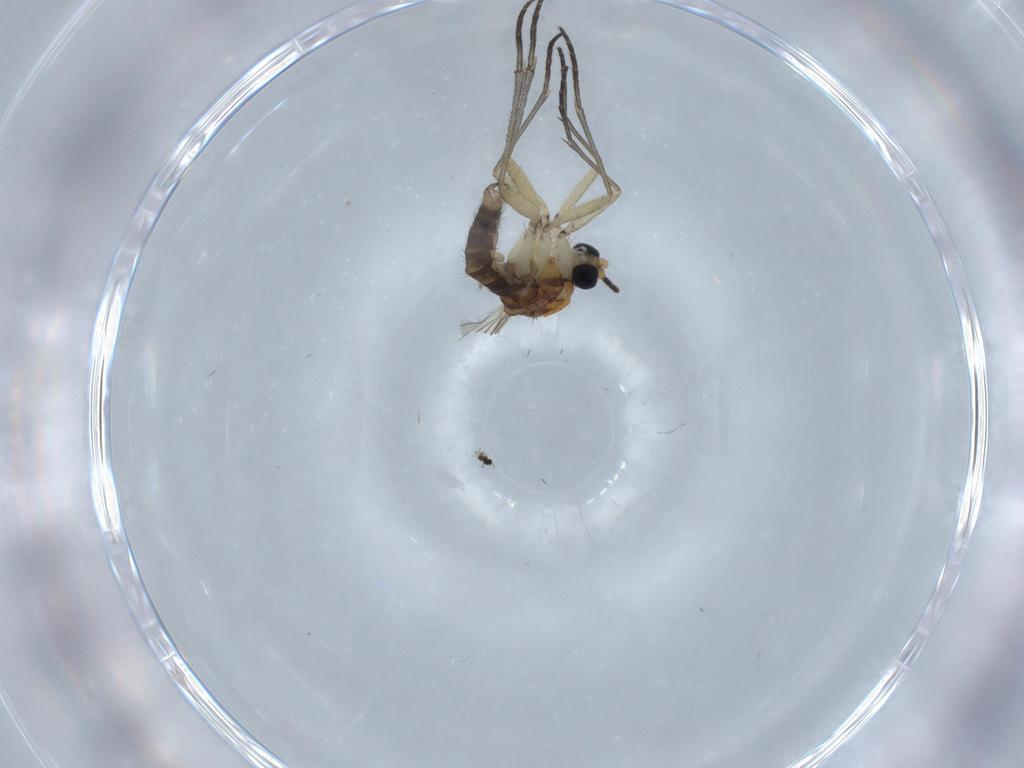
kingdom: Animalia
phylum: Arthropoda
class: Insecta
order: Diptera
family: Sciaridae
